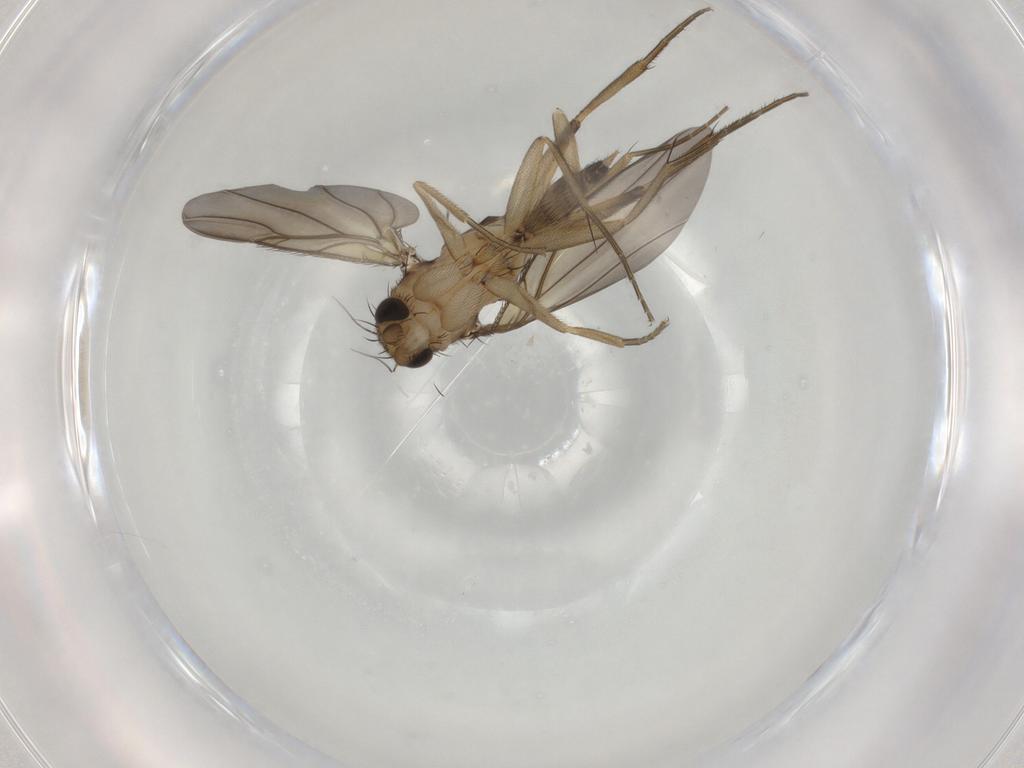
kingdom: Animalia
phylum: Arthropoda
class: Insecta
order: Diptera
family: Phoridae
